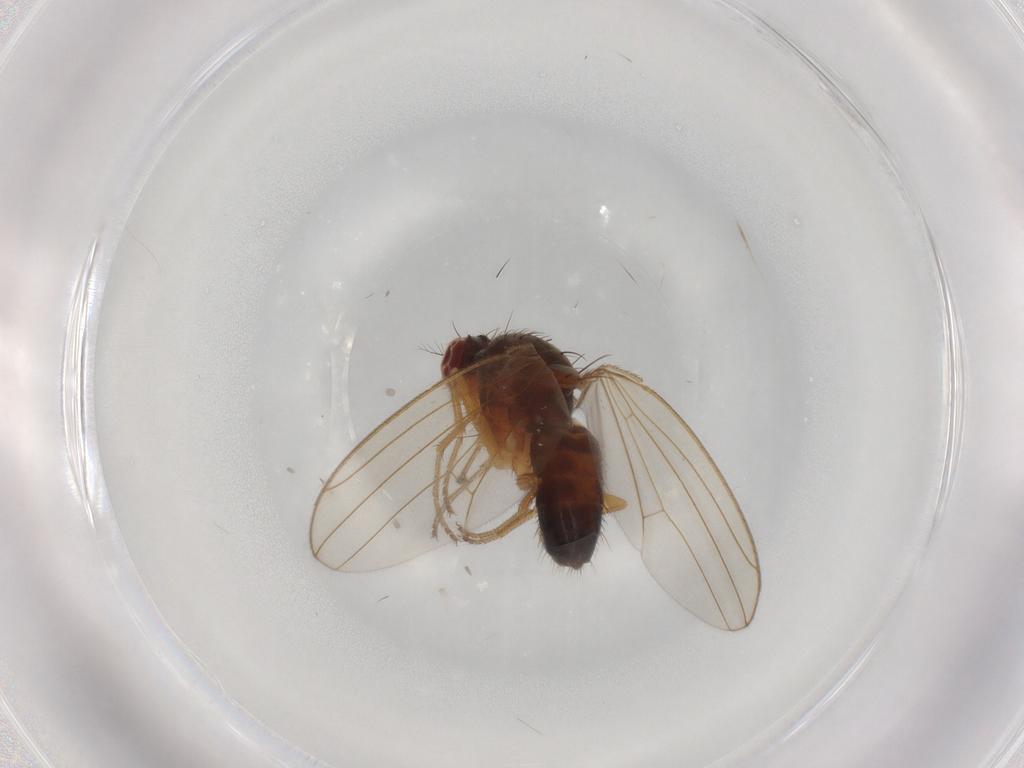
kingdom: Animalia
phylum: Arthropoda
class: Insecta
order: Diptera
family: Drosophilidae
